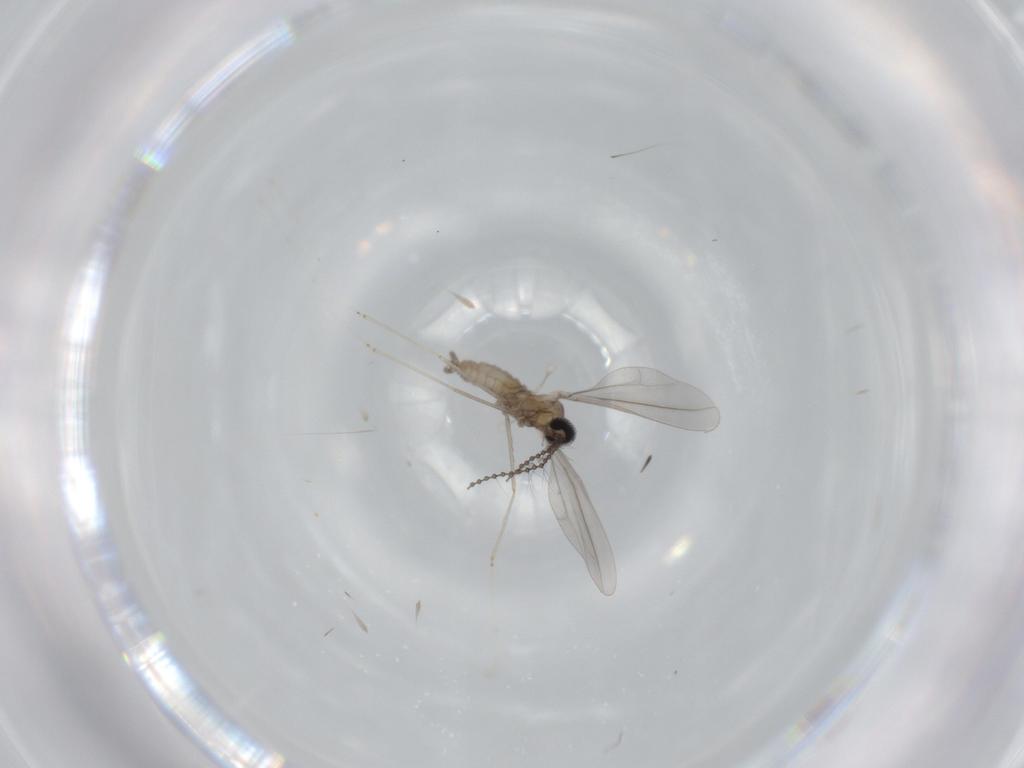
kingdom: Animalia
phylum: Arthropoda
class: Insecta
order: Diptera
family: Cecidomyiidae
